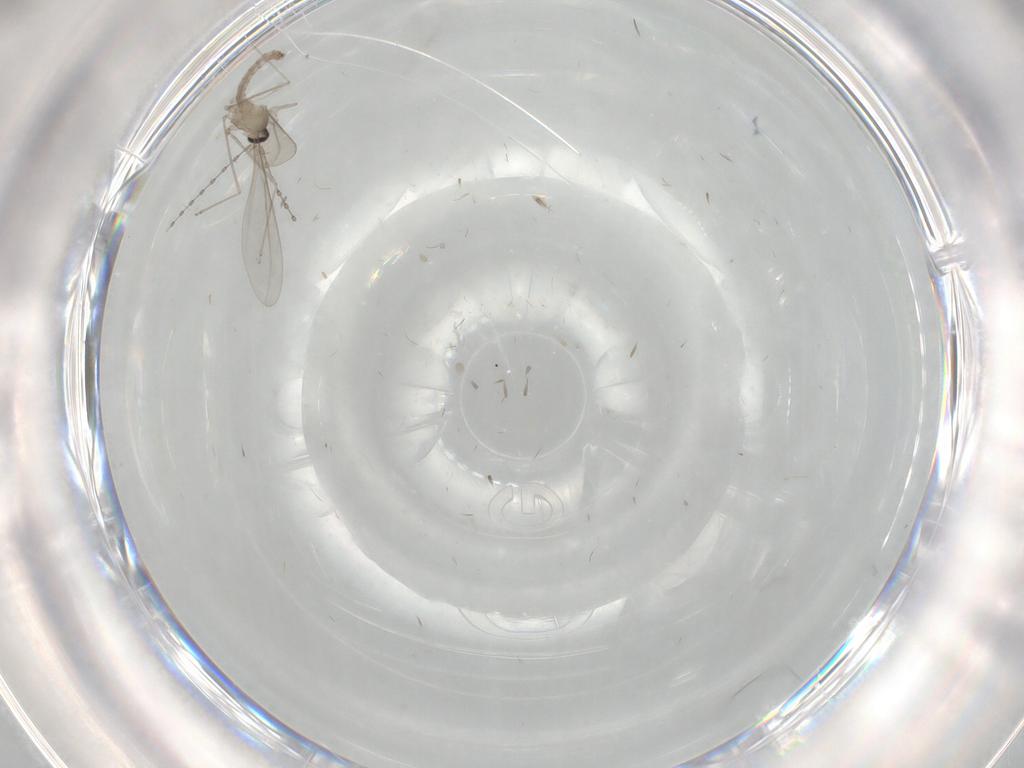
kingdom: Animalia
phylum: Arthropoda
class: Insecta
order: Diptera
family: Cecidomyiidae
